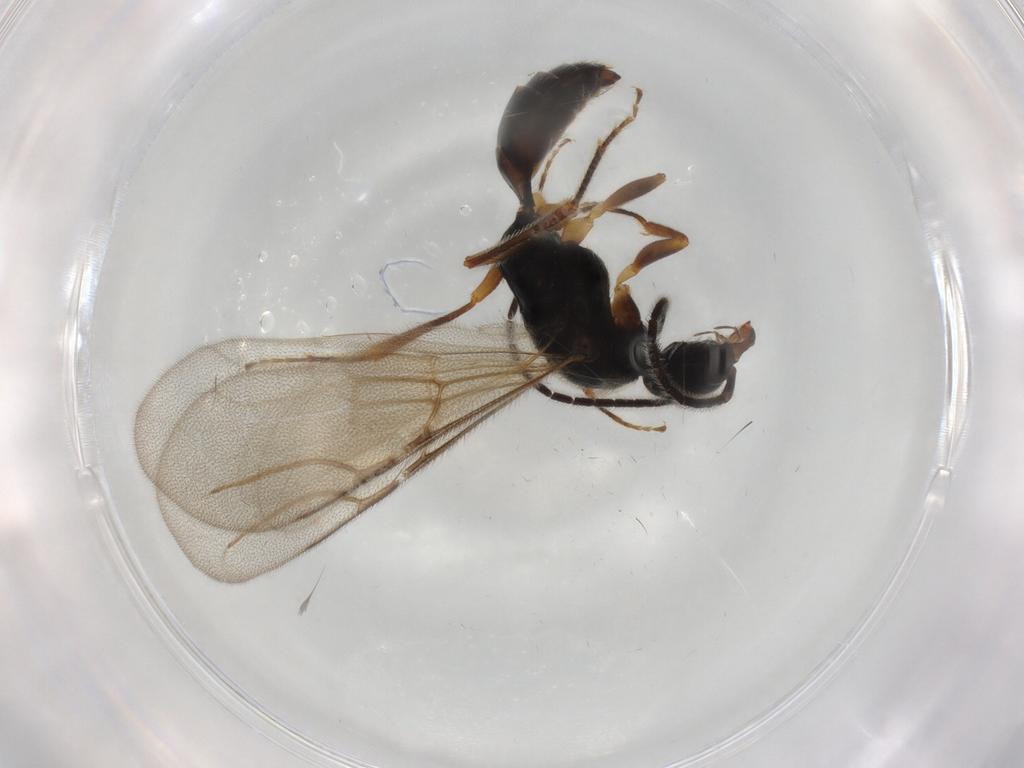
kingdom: Animalia
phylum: Arthropoda
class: Insecta
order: Hymenoptera
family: Bethylidae
